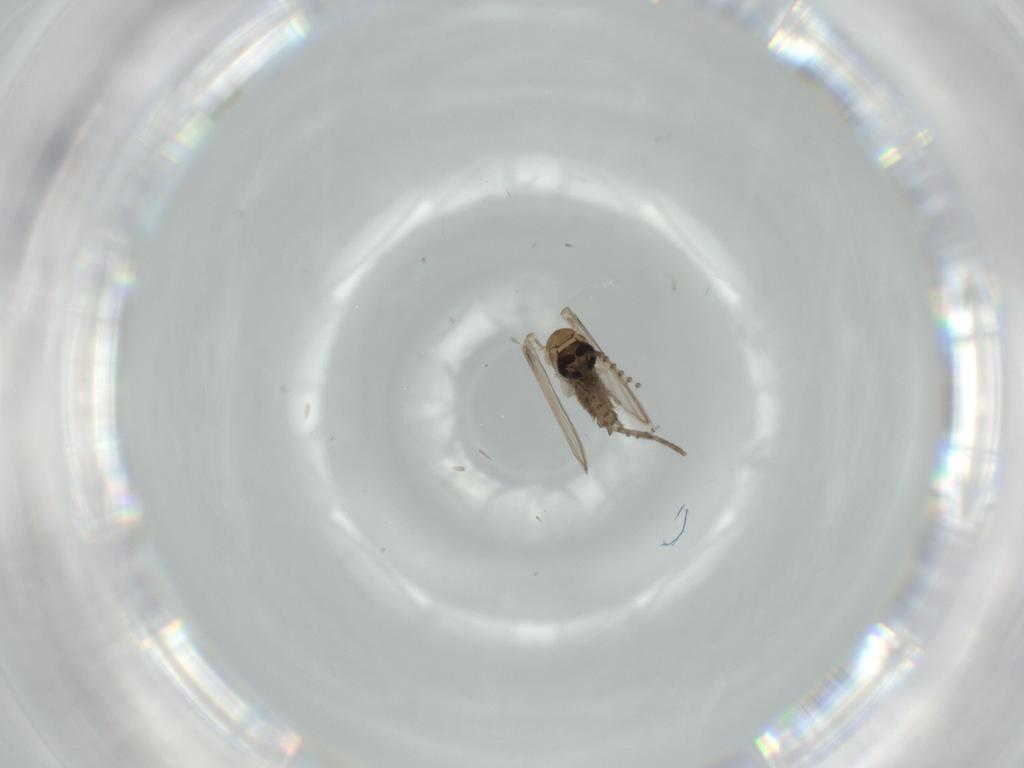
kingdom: Animalia
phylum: Arthropoda
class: Insecta
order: Diptera
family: Psychodidae
